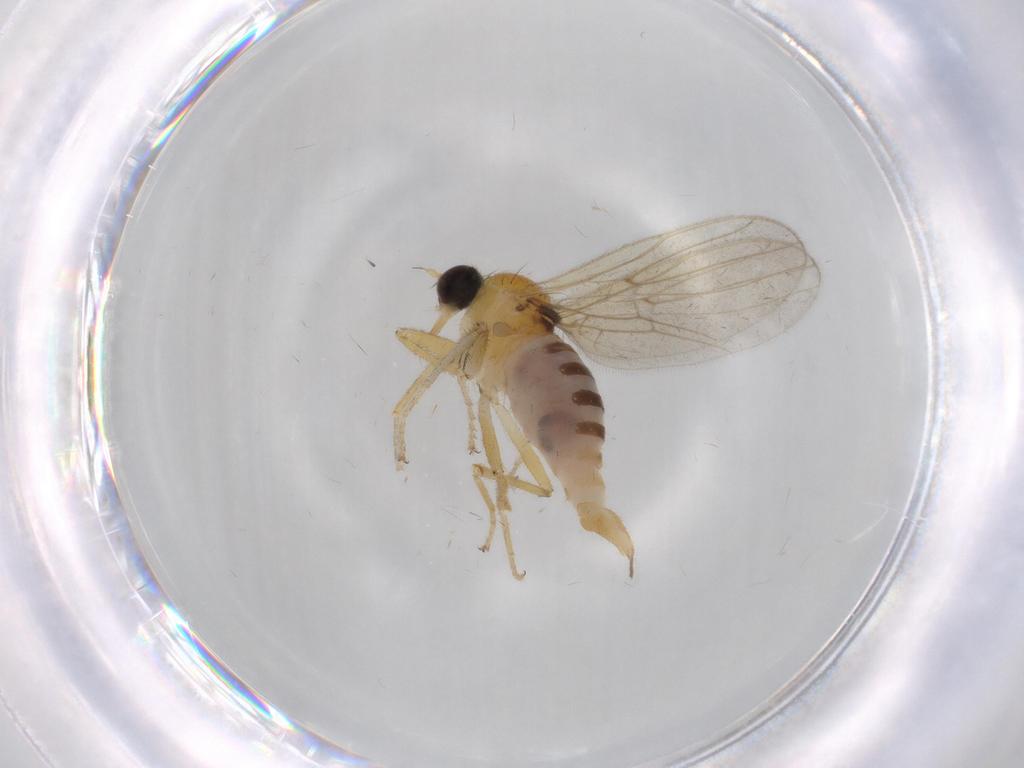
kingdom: Animalia
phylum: Arthropoda
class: Insecta
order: Diptera
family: Hybotidae
